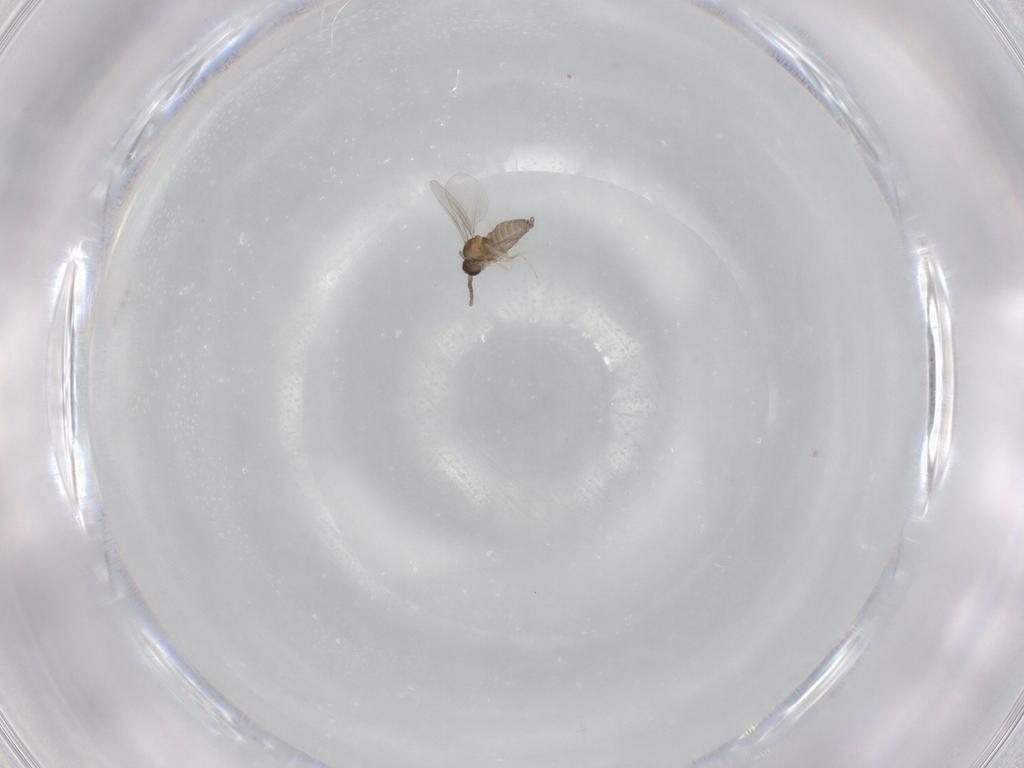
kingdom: Animalia
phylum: Arthropoda
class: Insecta
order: Diptera
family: Cecidomyiidae
